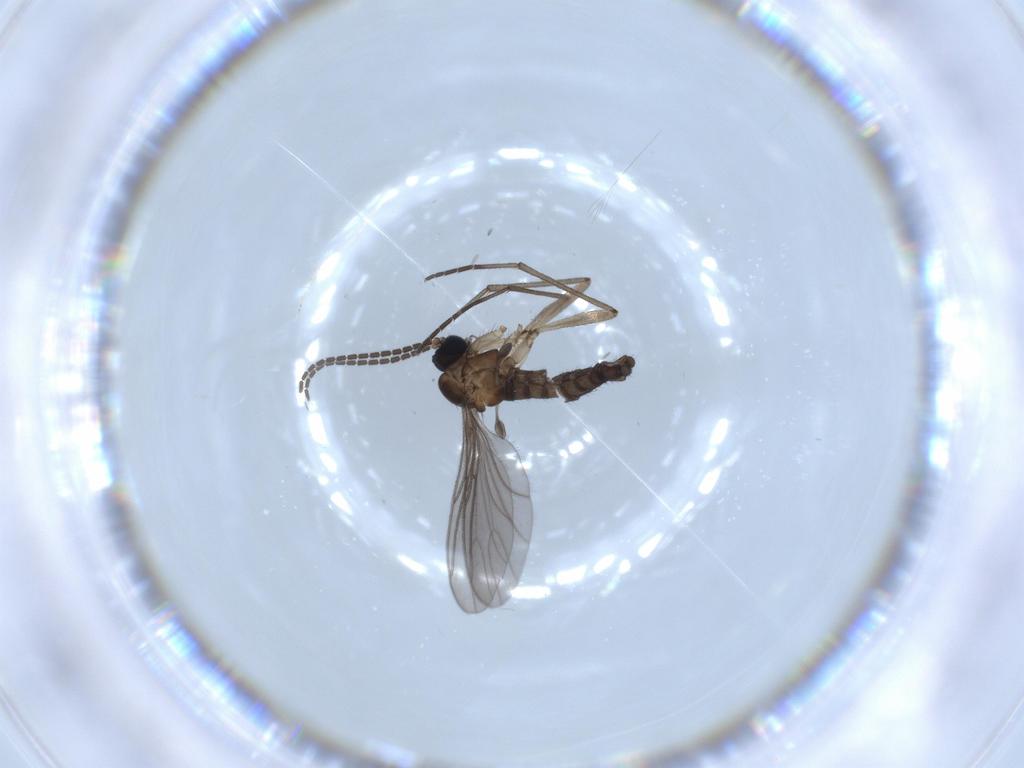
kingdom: Animalia
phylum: Arthropoda
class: Insecta
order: Diptera
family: Sciaridae
